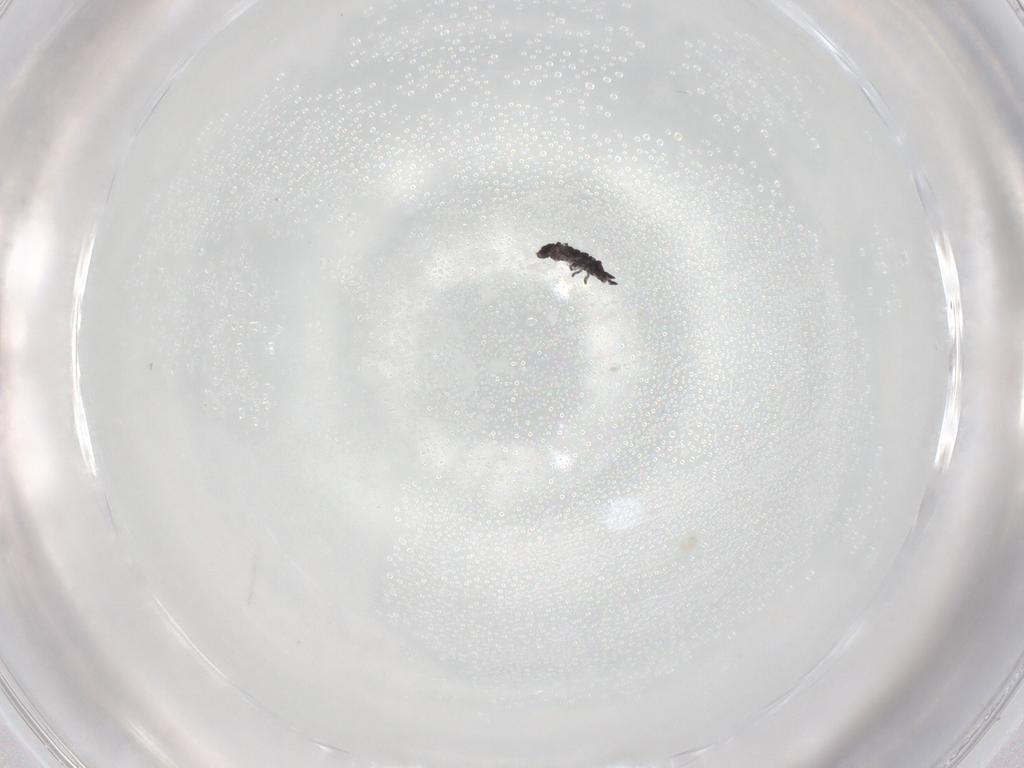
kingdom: Animalia
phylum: Arthropoda
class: Collembola
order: Poduromorpha
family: Hypogastruridae
